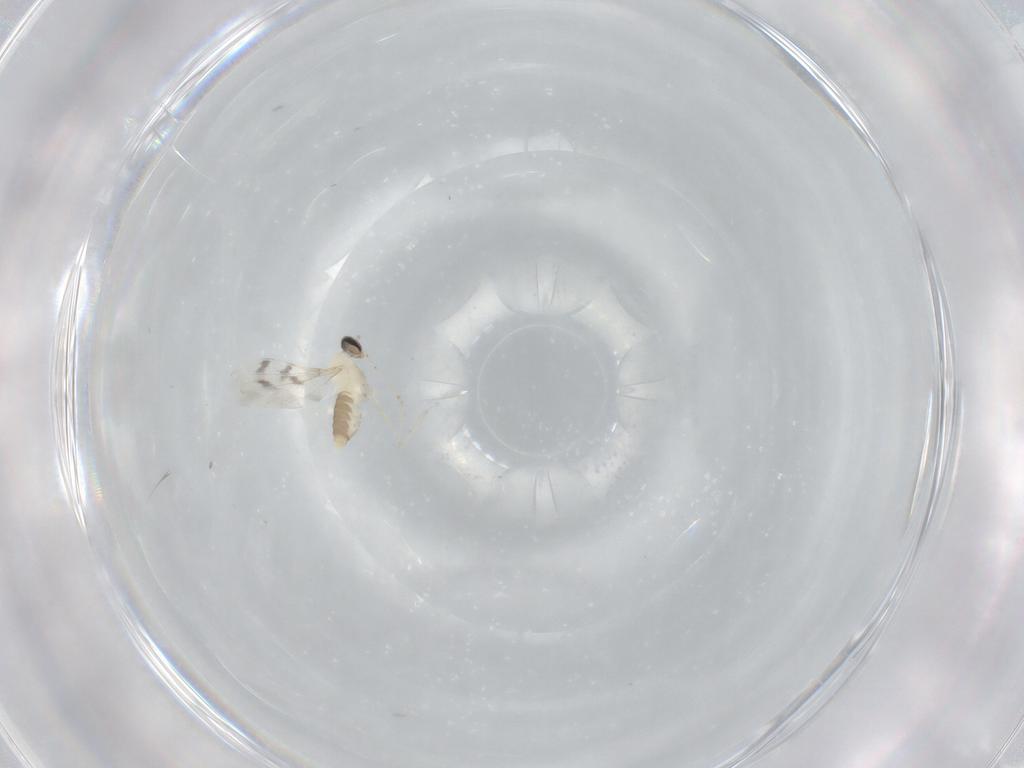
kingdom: Animalia
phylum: Arthropoda
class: Insecta
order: Diptera
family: Cecidomyiidae
